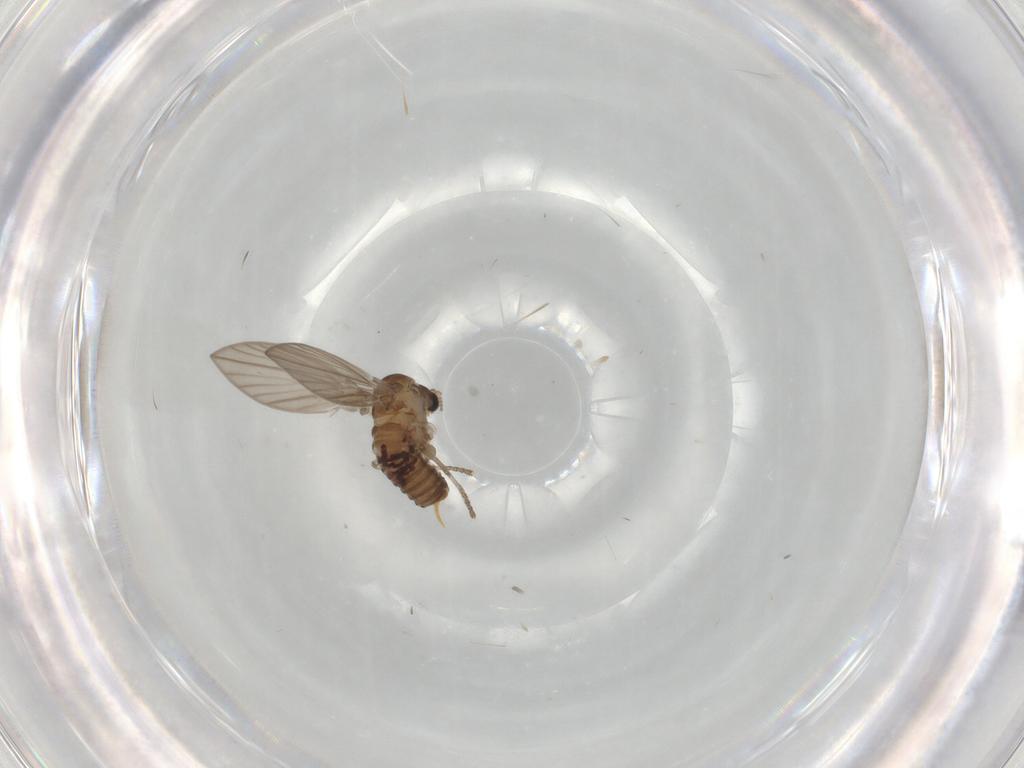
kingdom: Animalia
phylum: Arthropoda
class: Insecta
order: Diptera
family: Psychodidae
